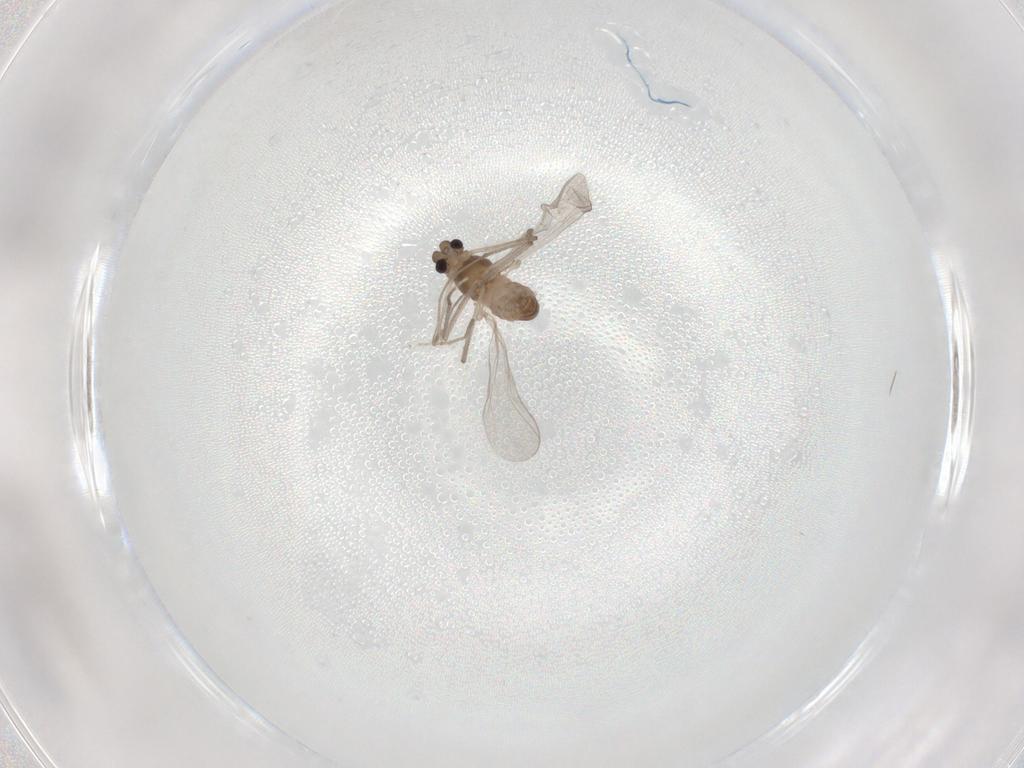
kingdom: Animalia
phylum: Arthropoda
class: Insecta
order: Diptera
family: Chironomidae
